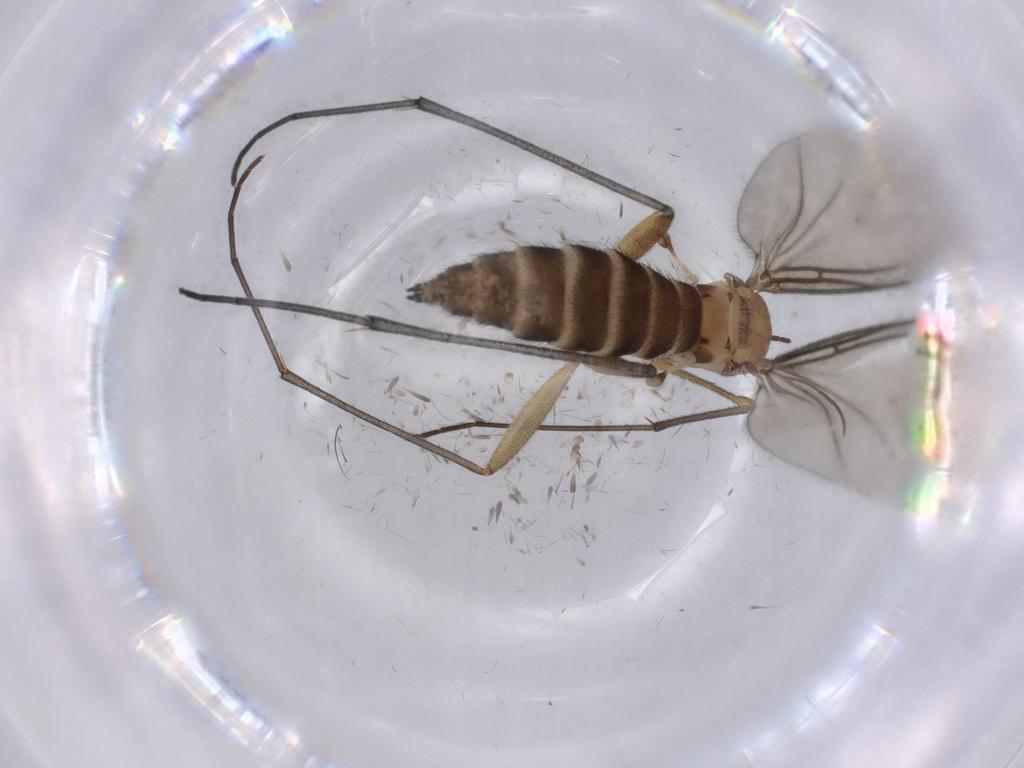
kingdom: Animalia
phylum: Arthropoda
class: Insecta
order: Diptera
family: Sciaridae
